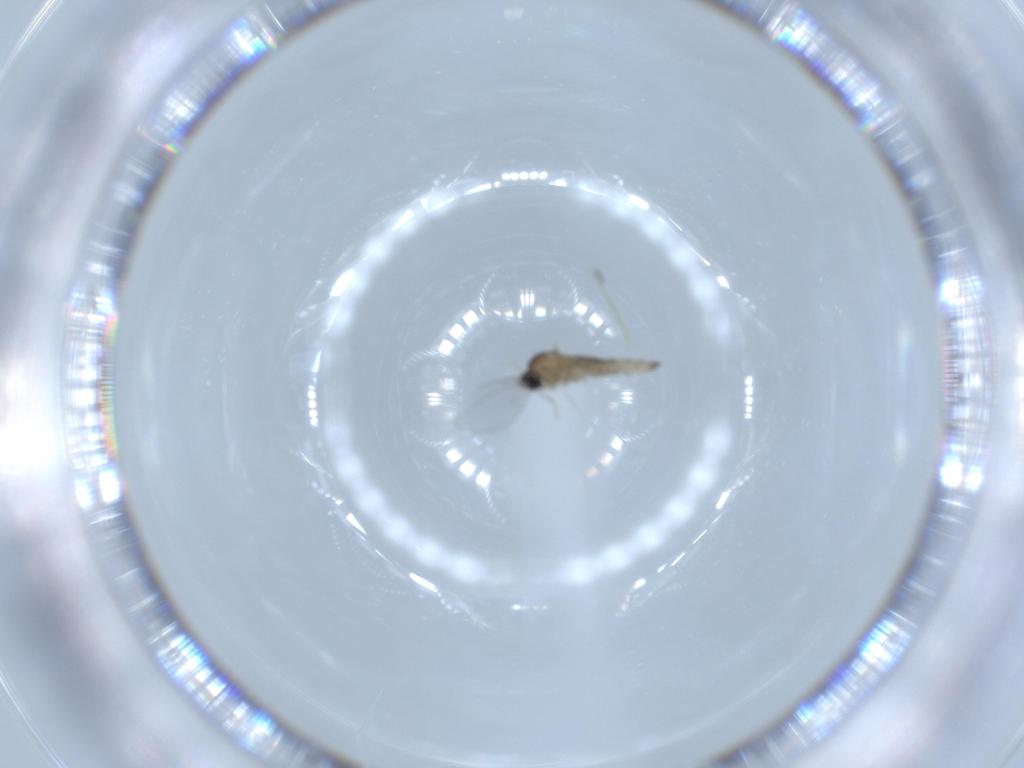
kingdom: Animalia
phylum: Arthropoda
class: Insecta
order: Diptera
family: Cecidomyiidae
